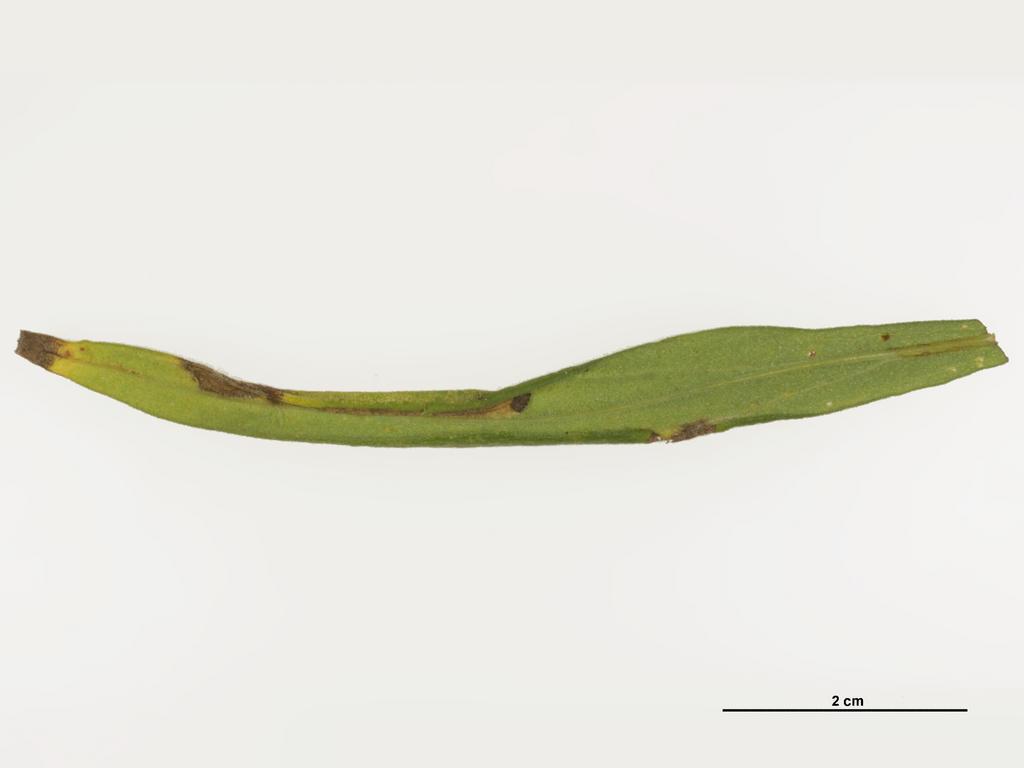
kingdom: Animalia
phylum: Arthropoda
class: Insecta
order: Hymenoptera
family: Eulophidae
